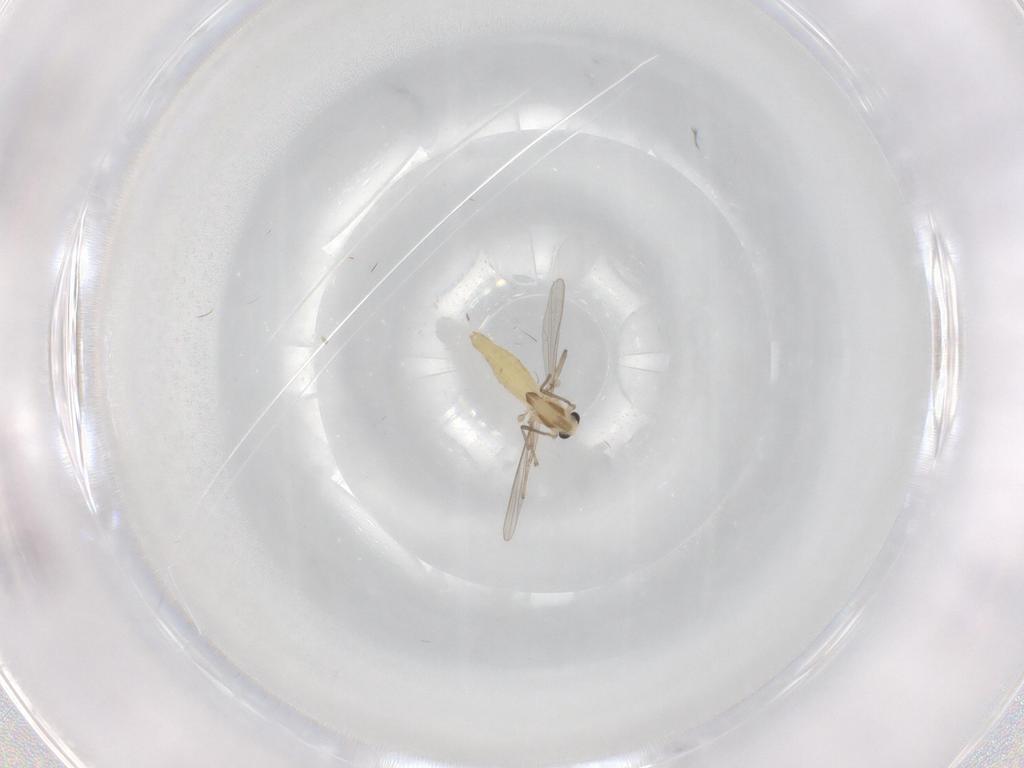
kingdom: Animalia
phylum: Arthropoda
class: Insecta
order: Diptera
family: Chironomidae
